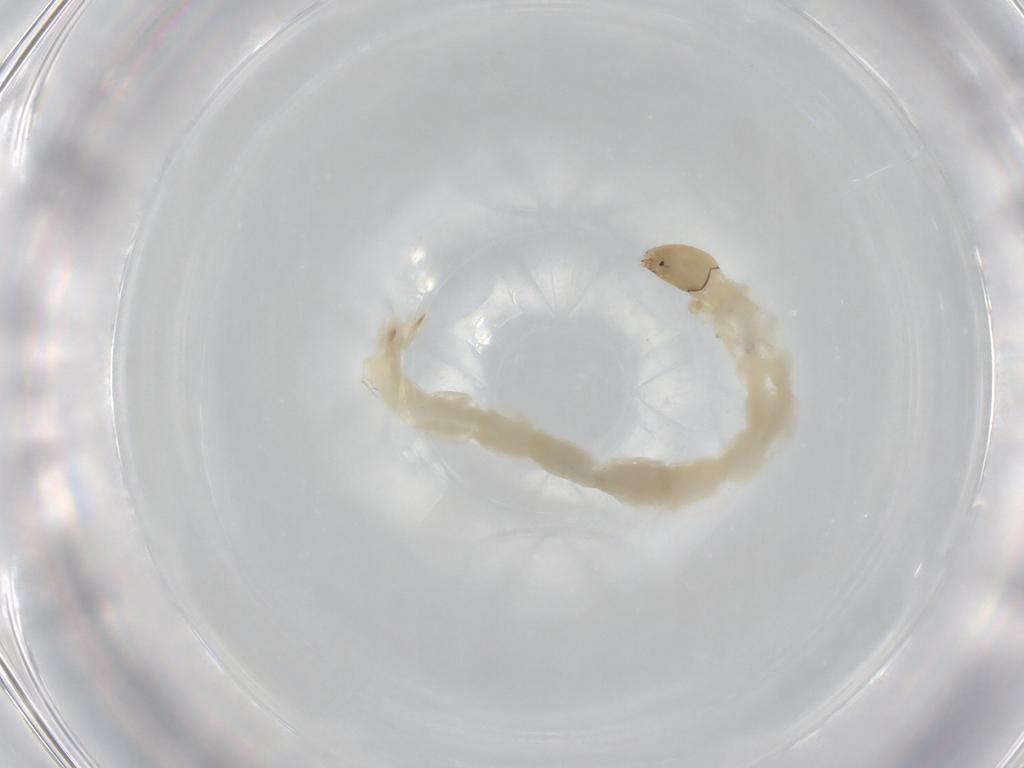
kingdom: Animalia
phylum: Arthropoda
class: Insecta
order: Diptera
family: Chironomidae
